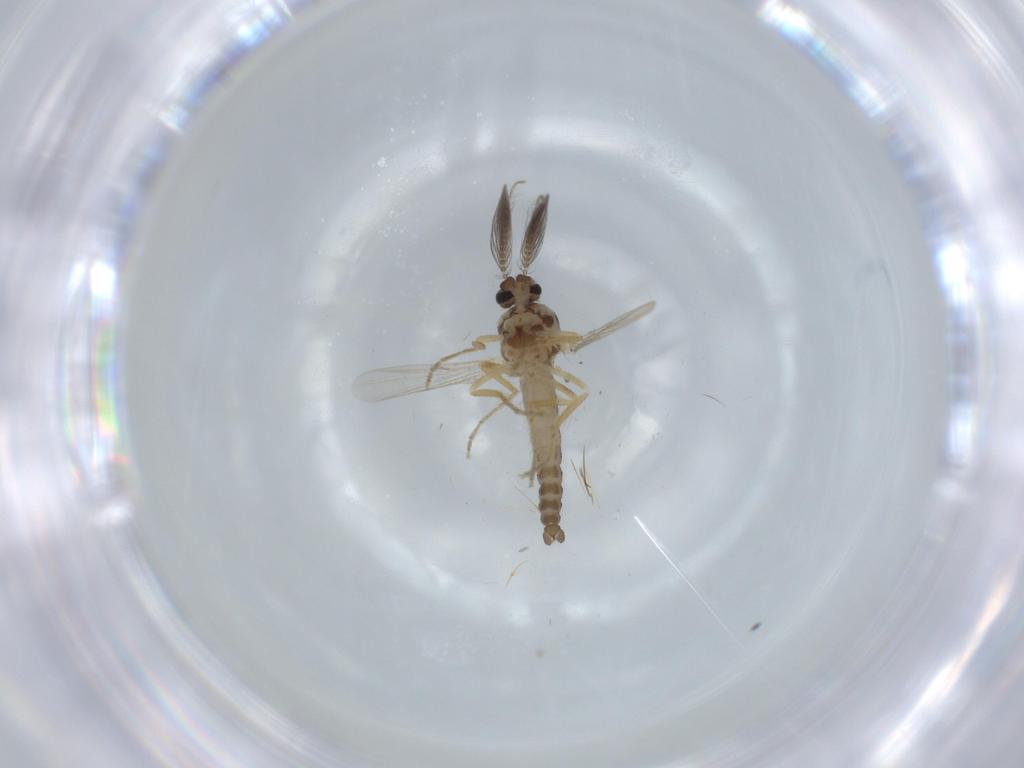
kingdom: Animalia
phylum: Arthropoda
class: Insecta
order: Diptera
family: Ceratopogonidae
